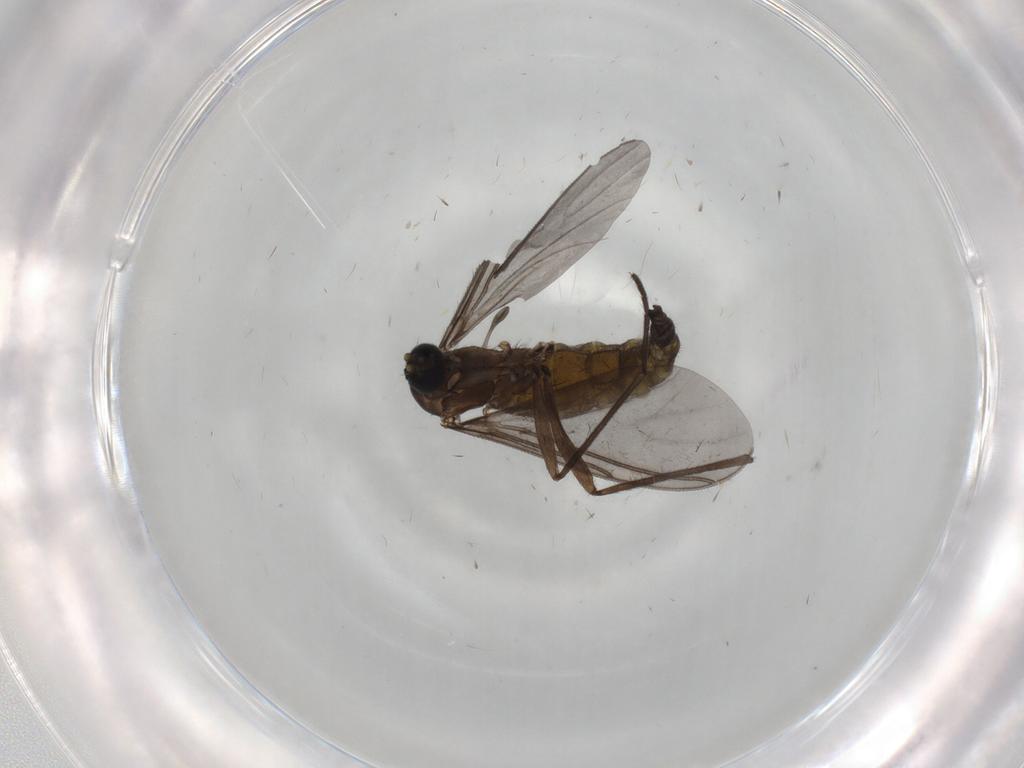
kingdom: Animalia
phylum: Arthropoda
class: Insecta
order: Diptera
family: Sciaridae
